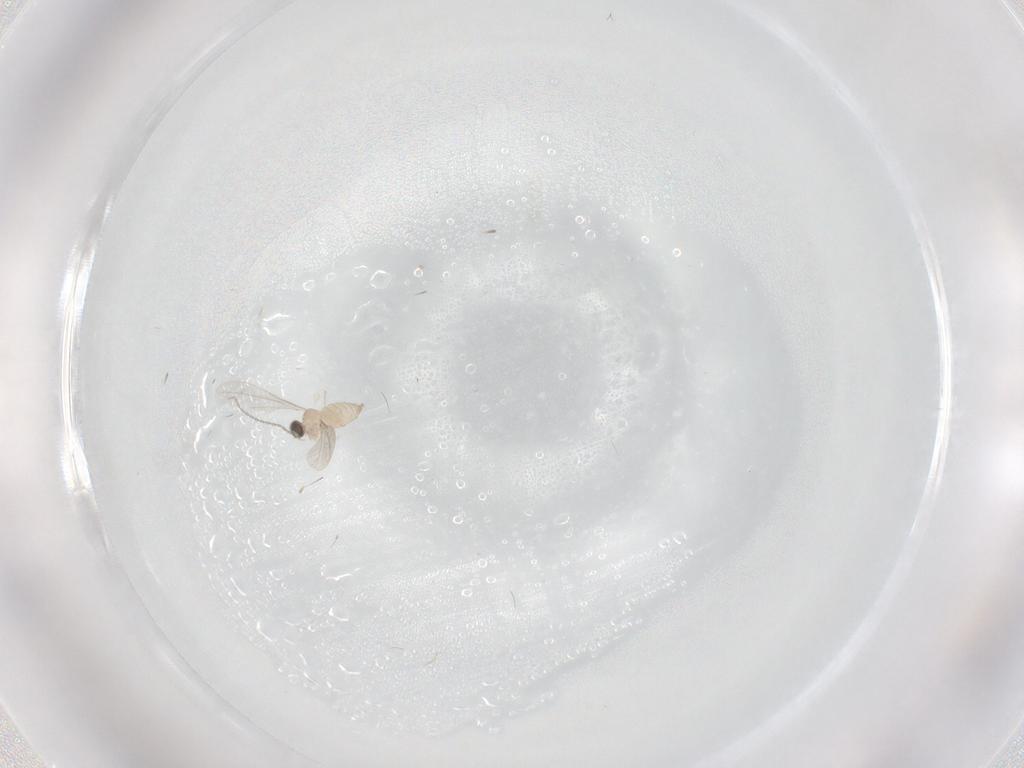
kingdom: Animalia
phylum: Arthropoda
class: Insecta
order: Diptera
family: Cecidomyiidae
